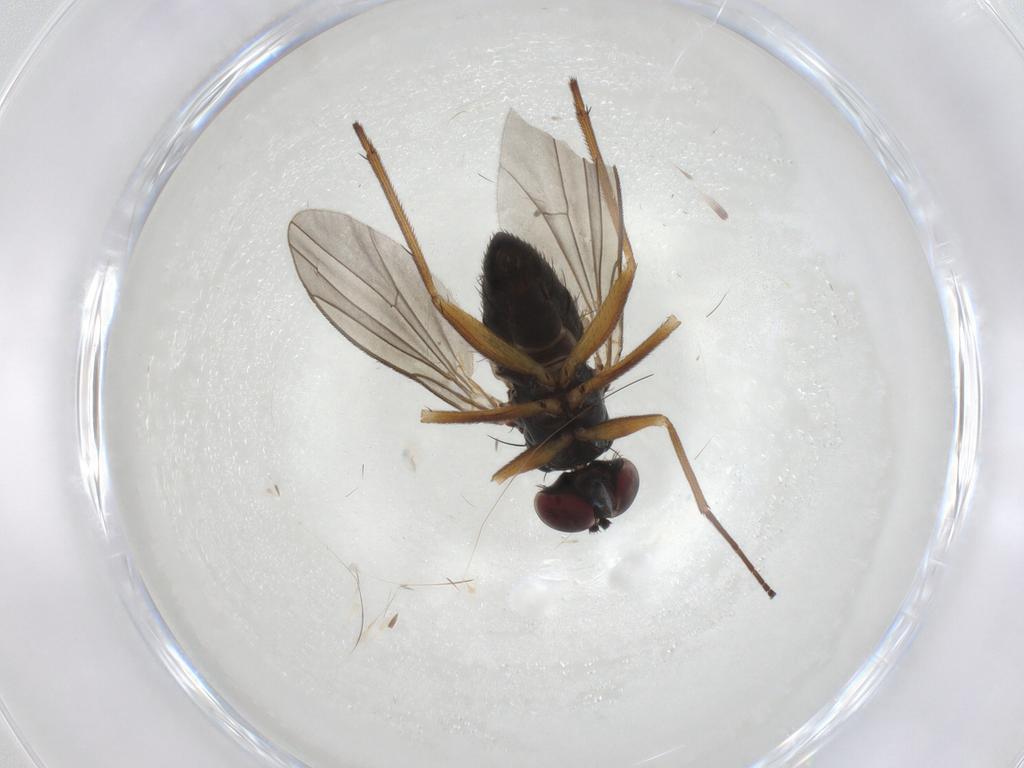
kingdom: Animalia
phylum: Arthropoda
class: Insecta
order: Diptera
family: Dolichopodidae
